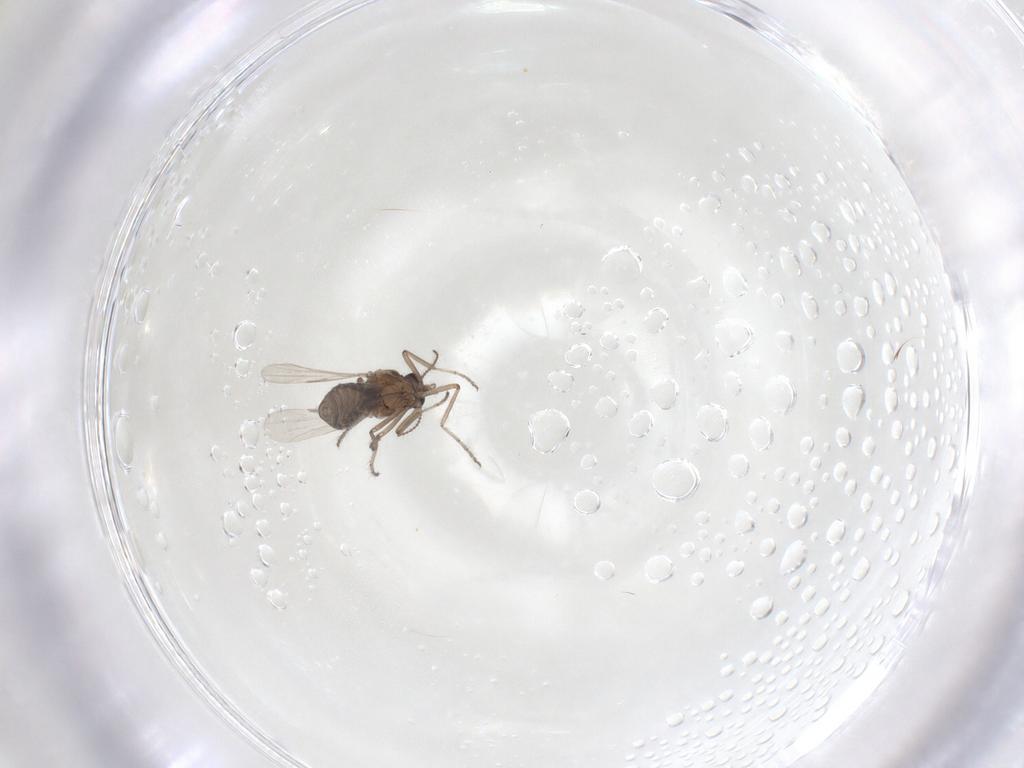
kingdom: Animalia
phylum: Arthropoda
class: Insecta
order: Diptera
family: Ceratopogonidae
